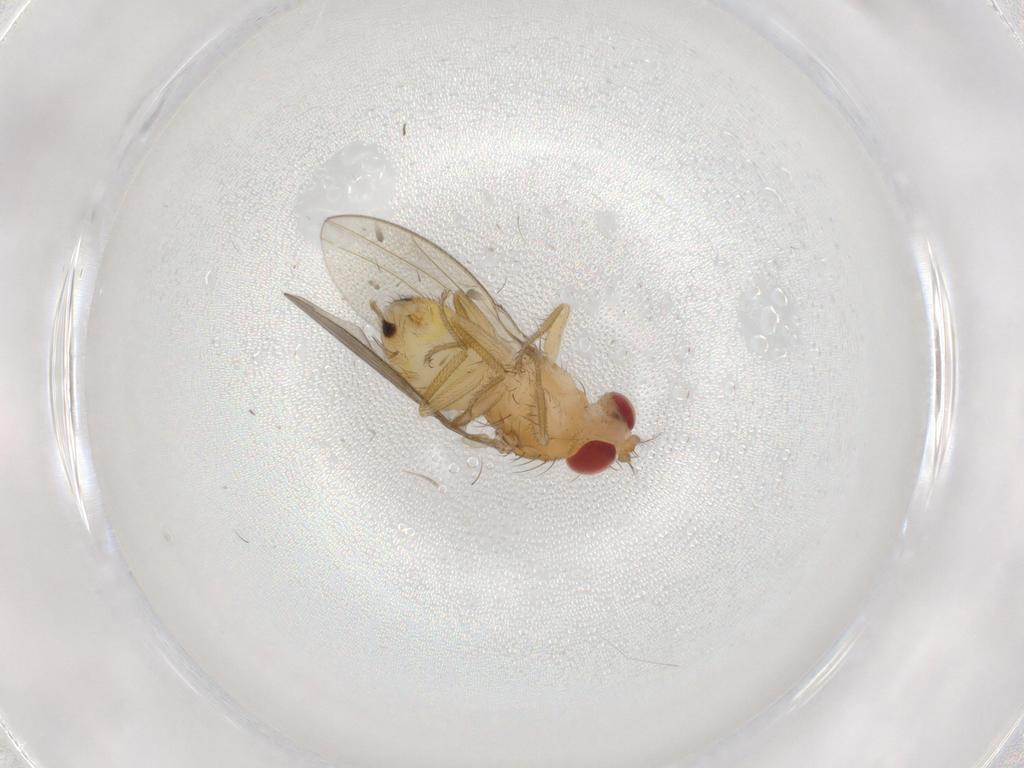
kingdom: Animalia
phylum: Arthropoda
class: Insecta
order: Diptera
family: Drosophilidae
